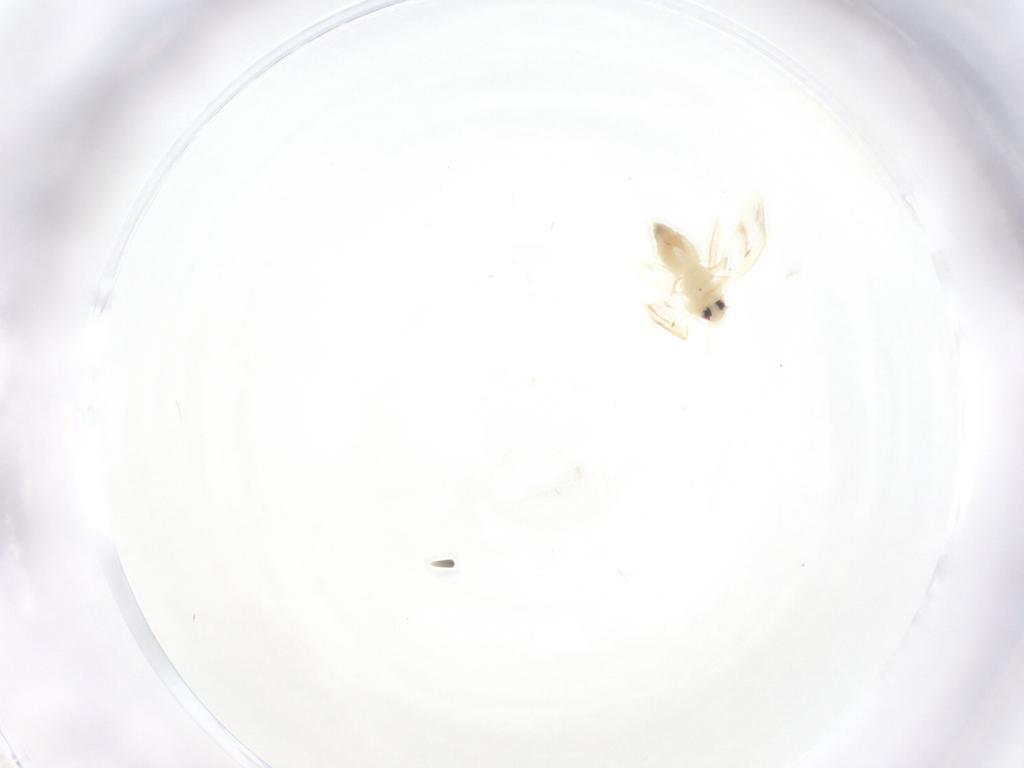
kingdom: Animalia
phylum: Arthropoda
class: Insecta
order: Hemiptera
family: Aleyrodidae
